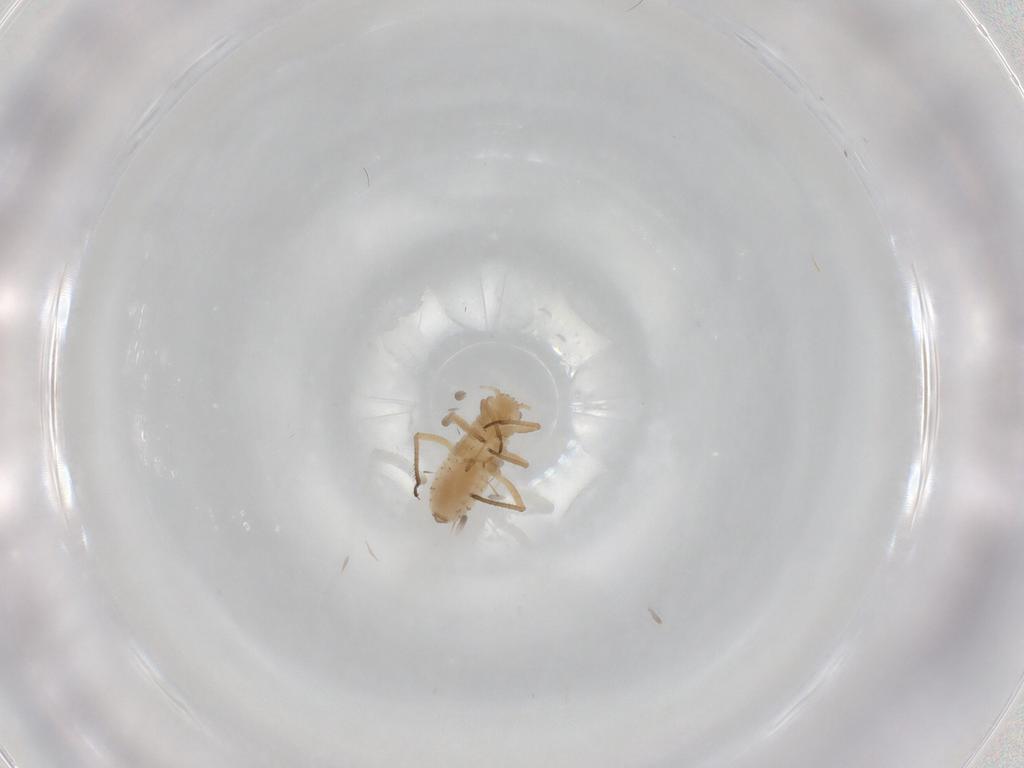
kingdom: Animalia
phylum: Arthropoda
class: Insecta
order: Hemiptera
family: Aphididae
